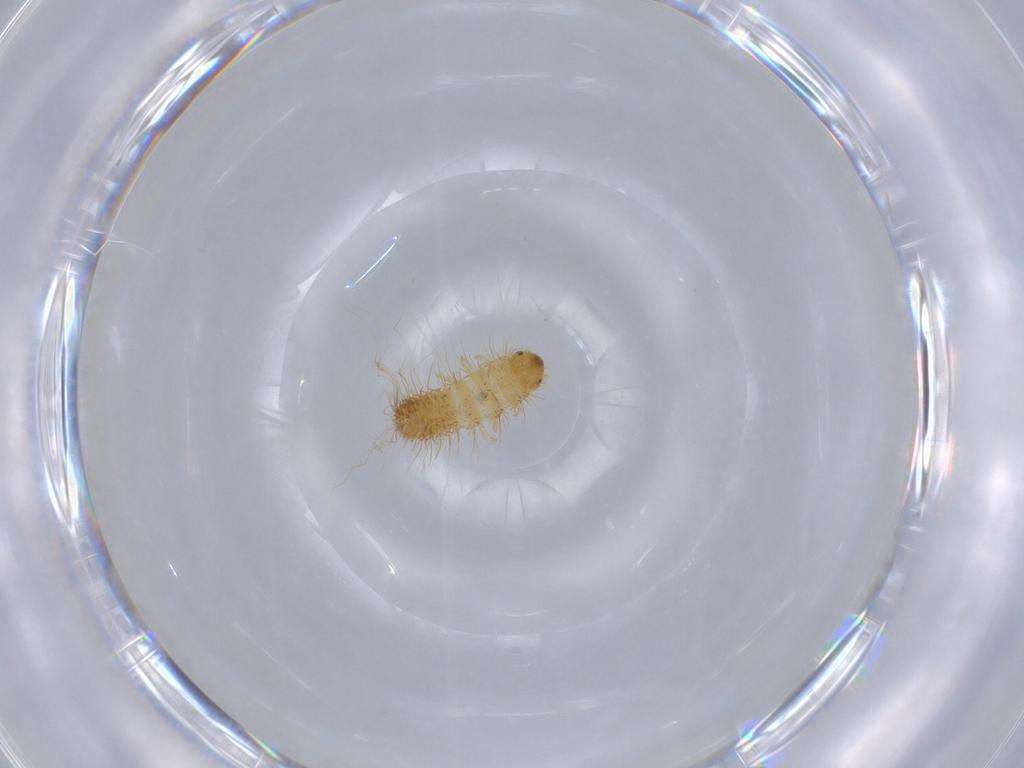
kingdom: Animalia
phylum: Arthropoda
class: Insecta
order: Coleoptera
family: Dermestidae
